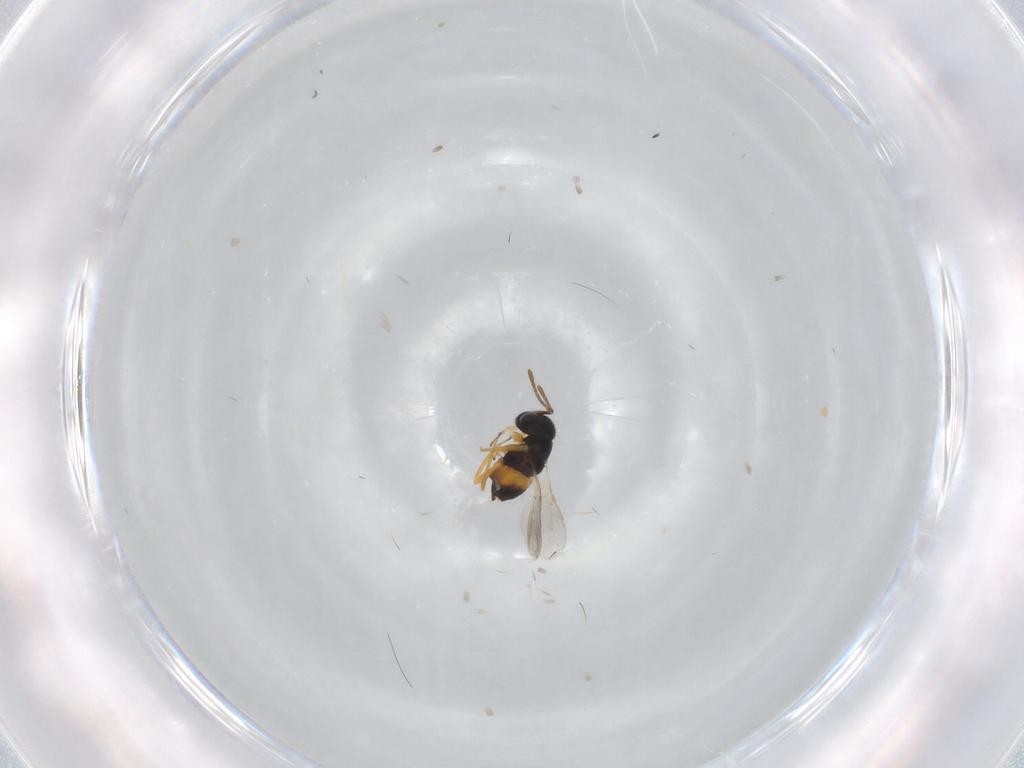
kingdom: Animalia
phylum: Arthropoda
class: Insecta
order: Hymenoptera
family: Encyrtidae
